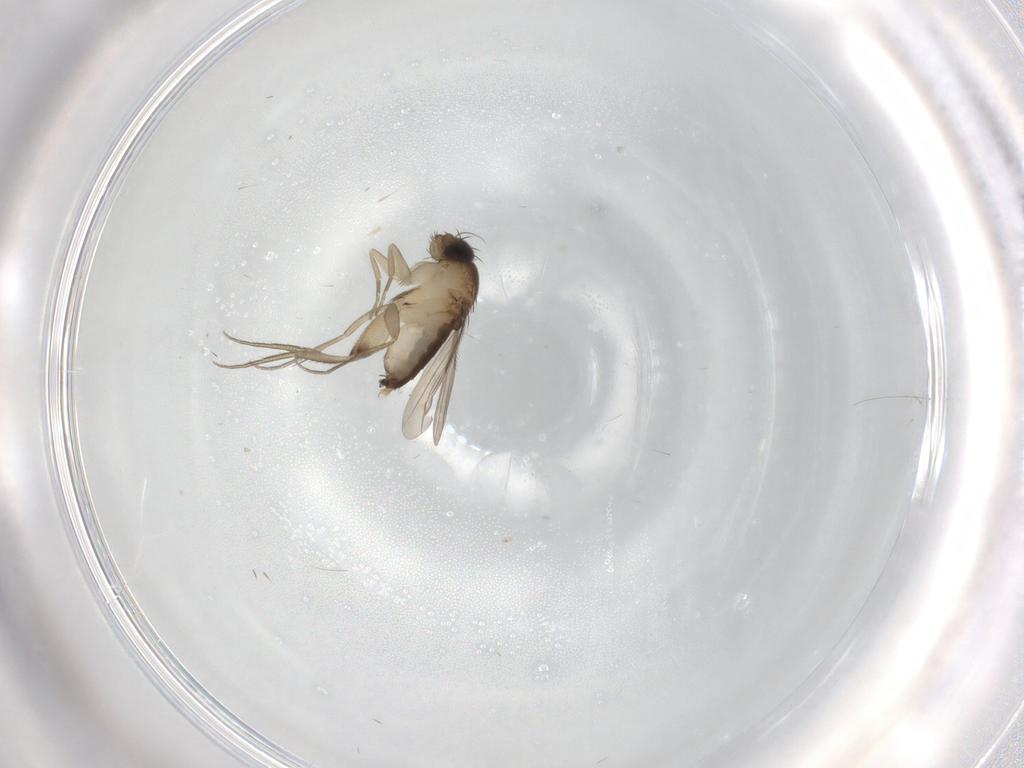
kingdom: Animalia
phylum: Arthropoda
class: Insecta
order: Diptera
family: Phoridae
